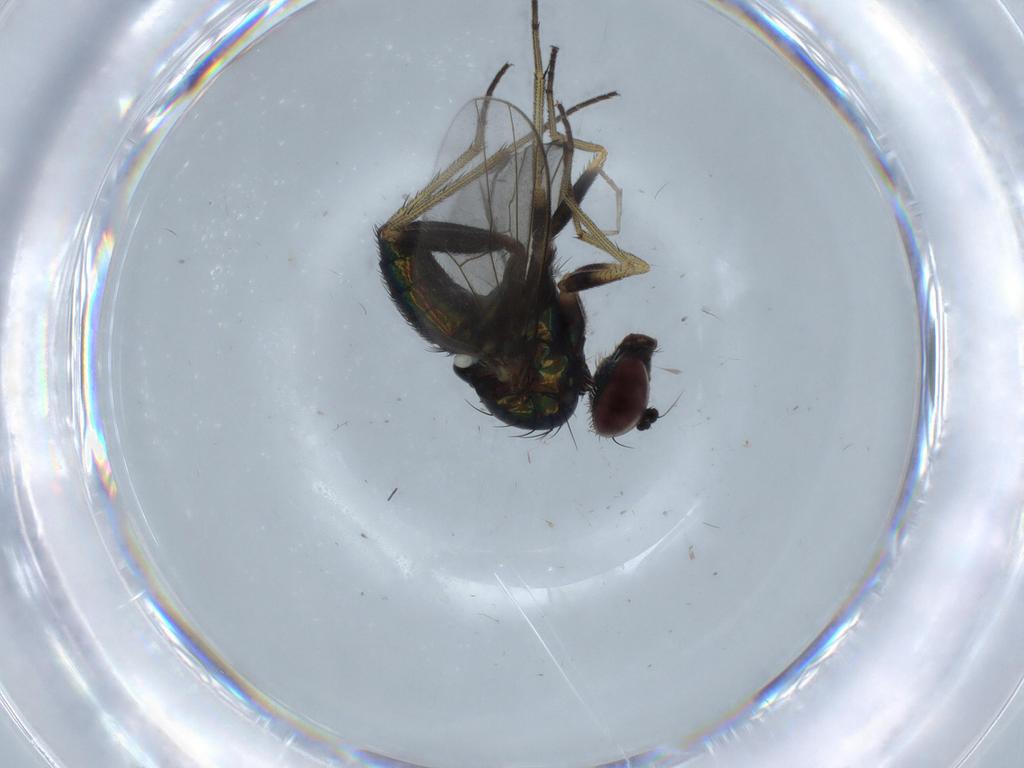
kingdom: Animalia
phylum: Arthropoda
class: Insecta
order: Diptera
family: Dolichopodidae
